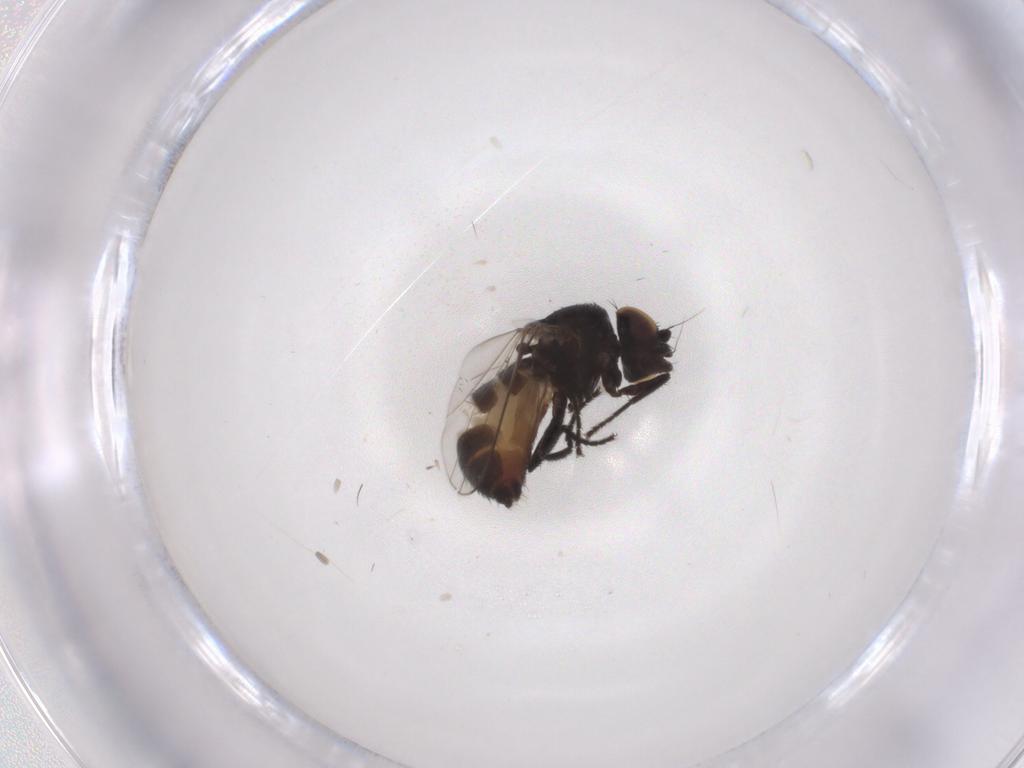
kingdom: Animalia
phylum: Arthropoda
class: Insecta
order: Diptera
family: Milichiidae
